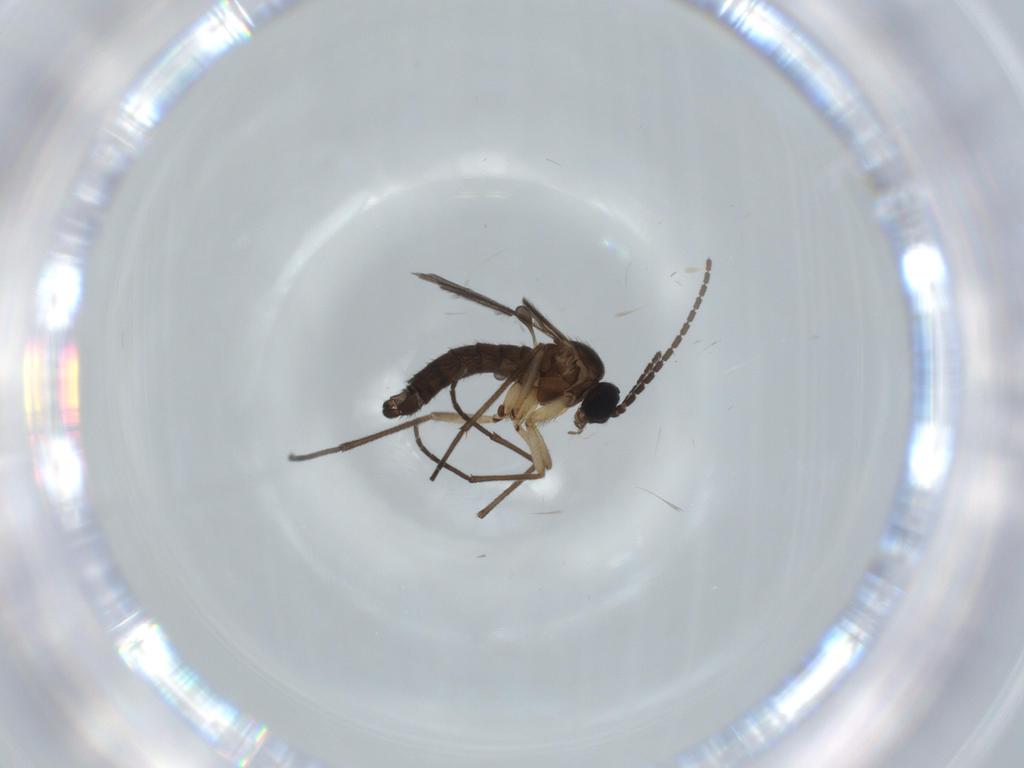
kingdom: Animalia
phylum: Arthropoda
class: Insecta
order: Diptera
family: Sciaridae
